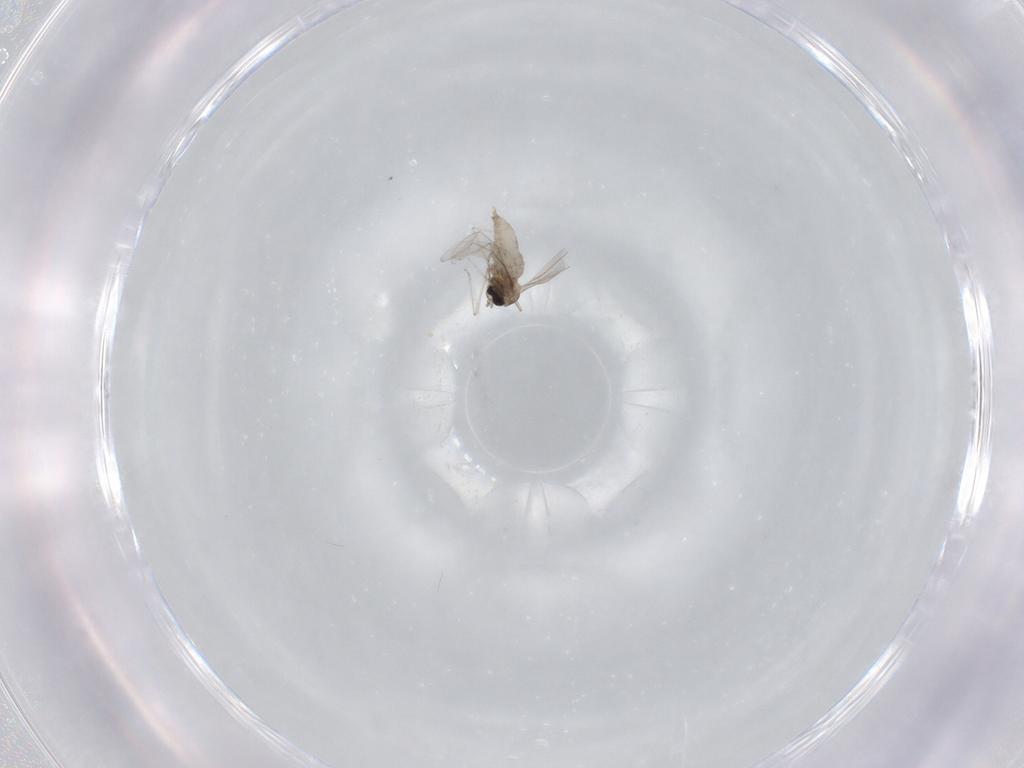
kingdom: Animalia
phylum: Arthropoda
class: Insecta
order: Diptera
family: Cecidomyiidae
